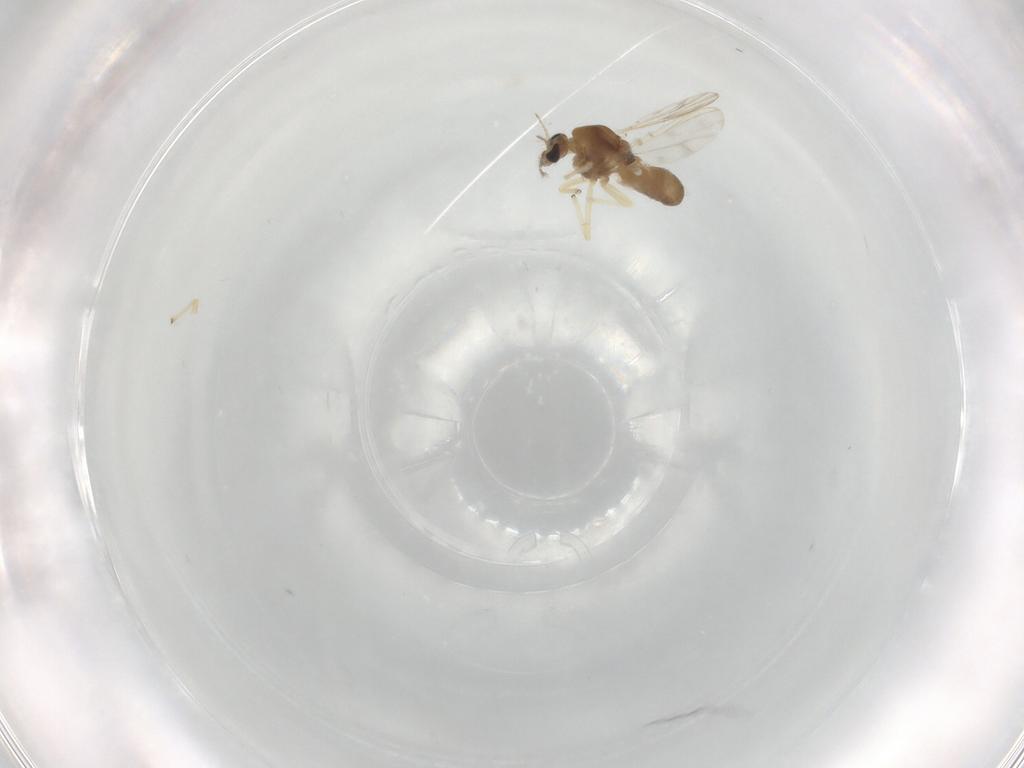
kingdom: Animalia
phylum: Arthropoda
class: Insecta
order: Diptera
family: Chironomidae
